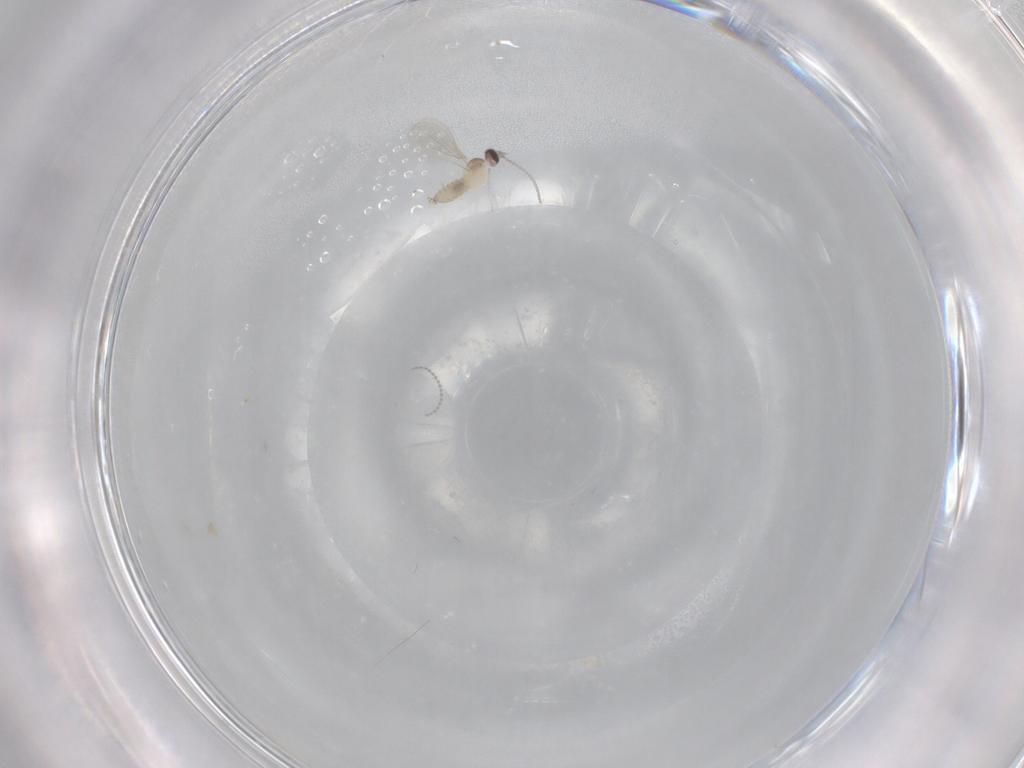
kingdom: Animalia
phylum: Arthropoda
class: Insecta
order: Diptera
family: Cecidomyiidae
